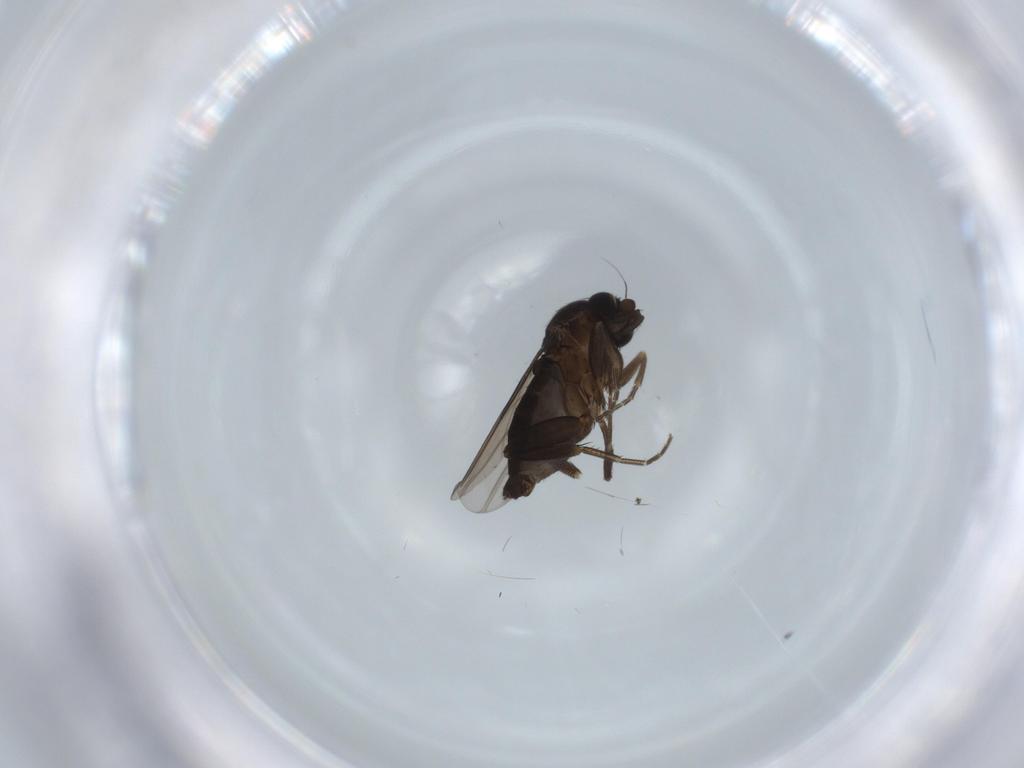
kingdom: Animalia
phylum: Arthropoda
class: Insecta
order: Diptera
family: Phoridae
